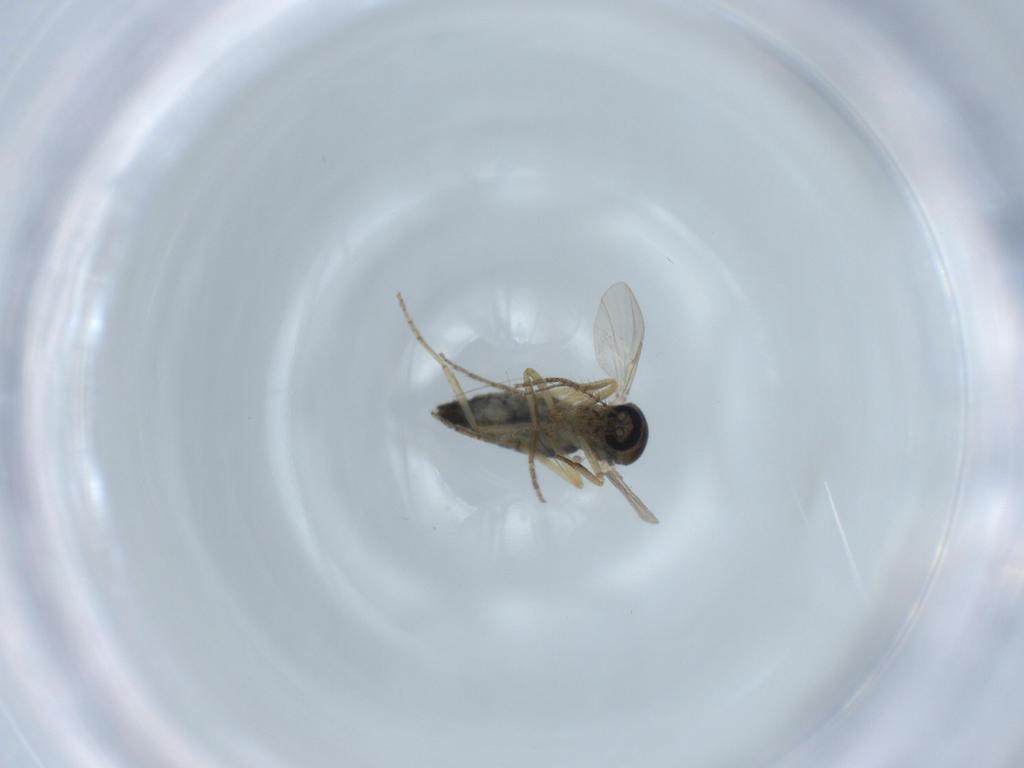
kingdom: Animalia
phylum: Arthropoda
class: Insecta
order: Diptera
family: Ceratopogonidae
